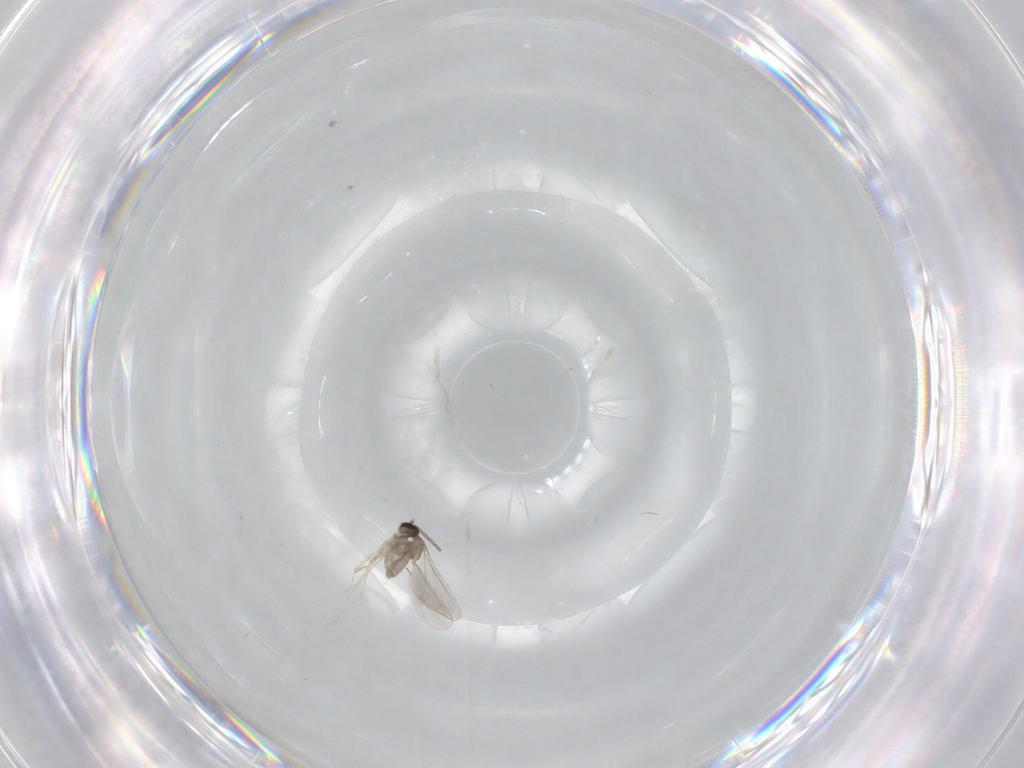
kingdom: Animalia
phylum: Arthropoda
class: Insecta
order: Diptera
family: Cecidomyiidae
